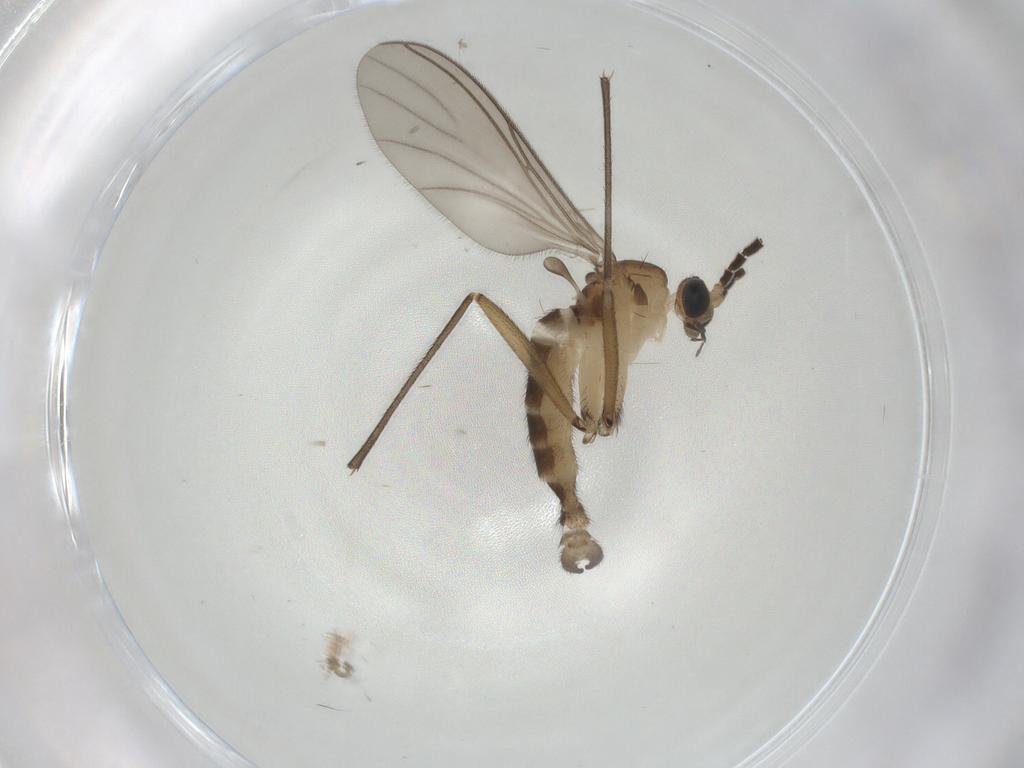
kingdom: Animalia
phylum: Arthropoda
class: Insecta
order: Diptera
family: Sciaridae
